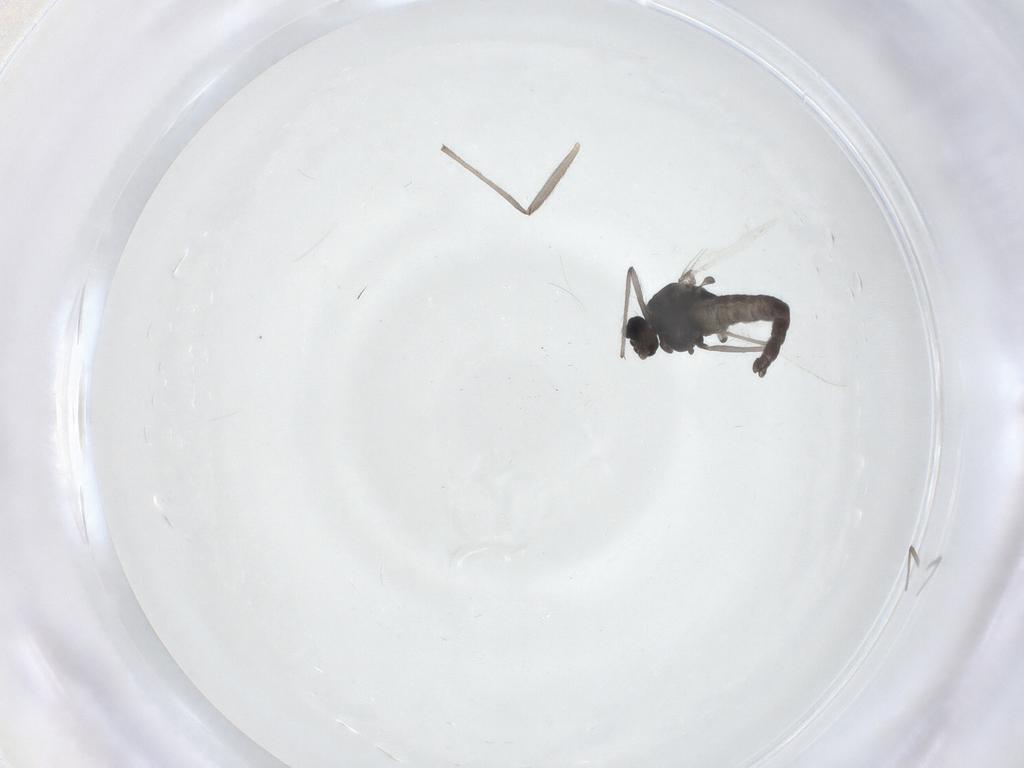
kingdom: Animalia
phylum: Arthropoda
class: Insecta
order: Diptera
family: Chironomidae
